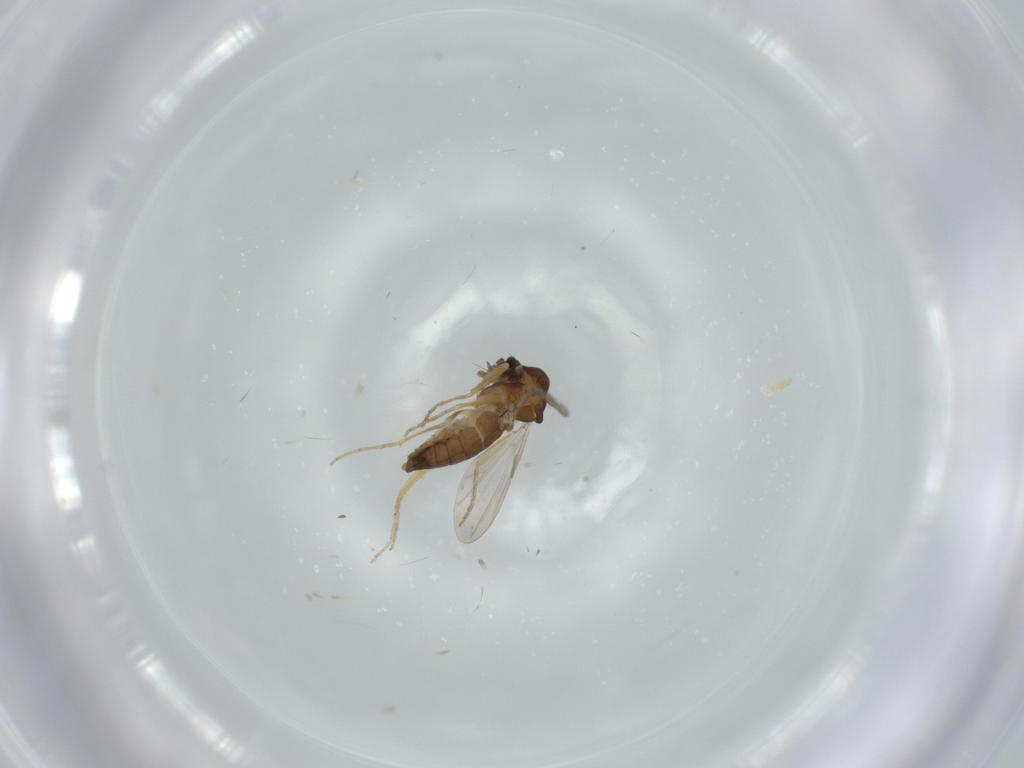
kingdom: Animalia
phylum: Arthropoda
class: Insecta
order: Diptera
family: Ceratopogonidae
